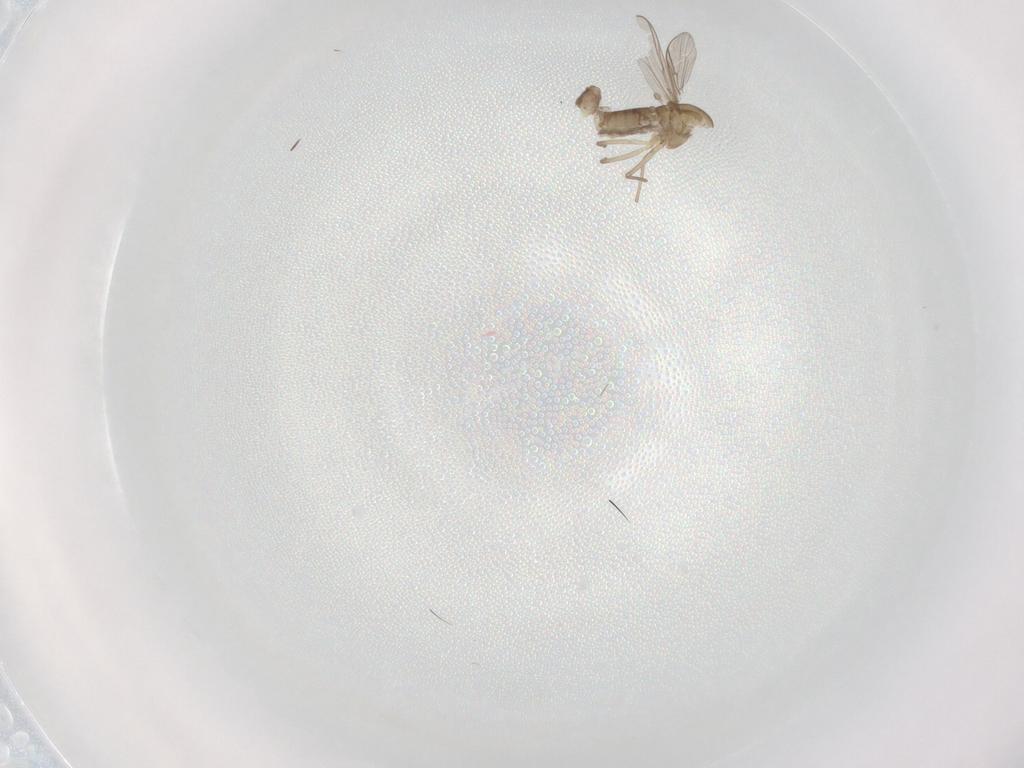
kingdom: Animalia
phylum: Arthropoda
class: Insecta
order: Diptera
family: Chironomidae
